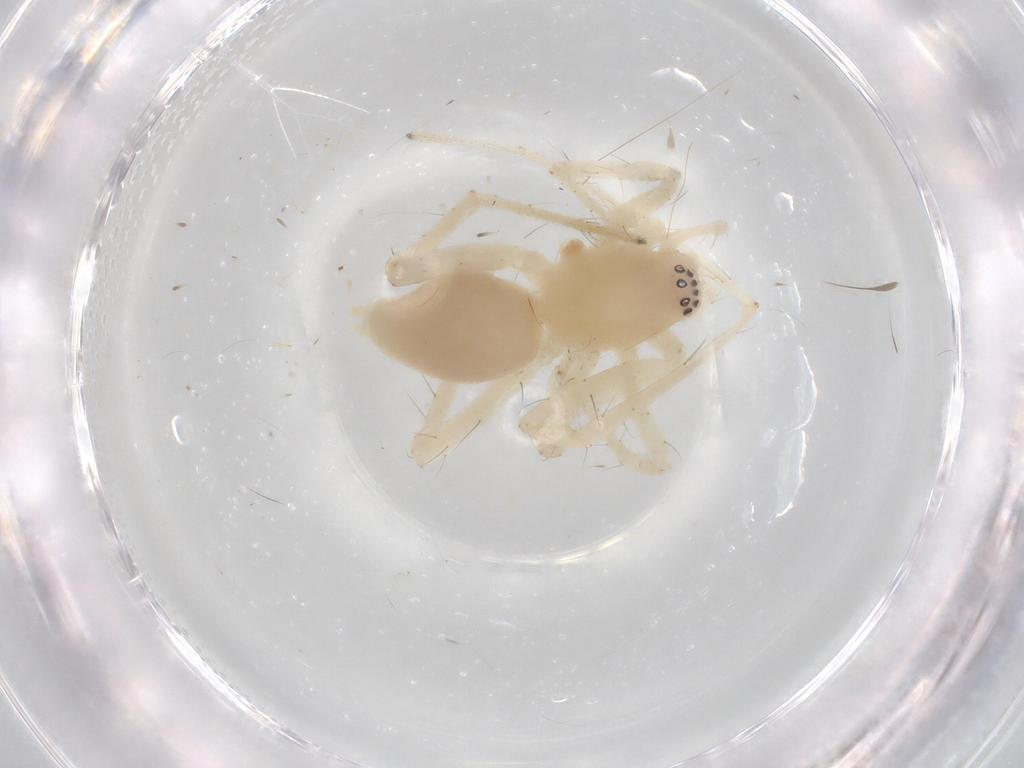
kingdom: Animalia
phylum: Arthropoda
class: Arachnida
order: Araneae
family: Anyphaenidae
